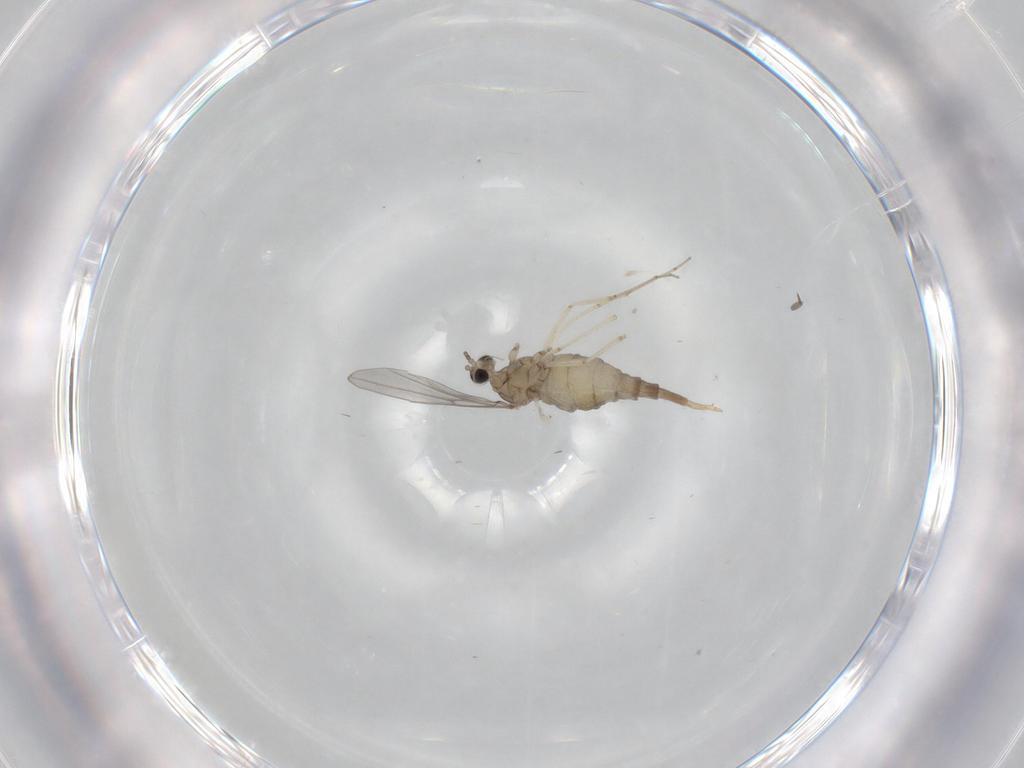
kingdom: Animalia
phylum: Arthropoda
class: Insecta
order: Diptera
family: Cecidomyiidae
